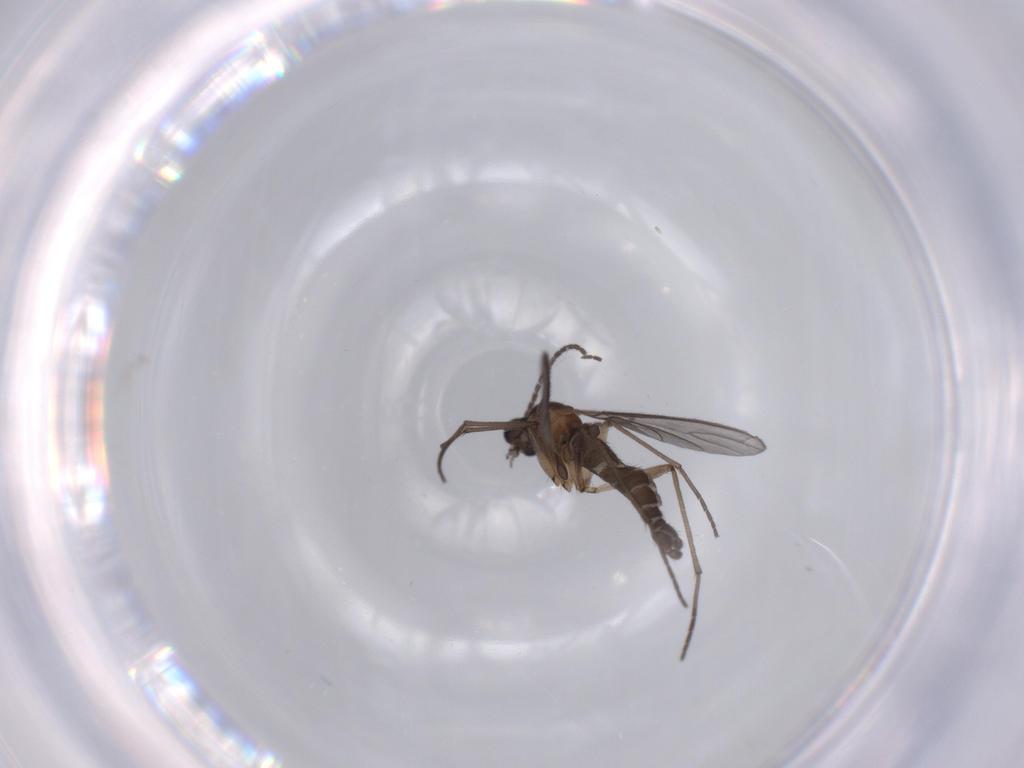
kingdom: Animalia
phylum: Arthropoda
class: Insecta
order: Diptera
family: Sciaridae
